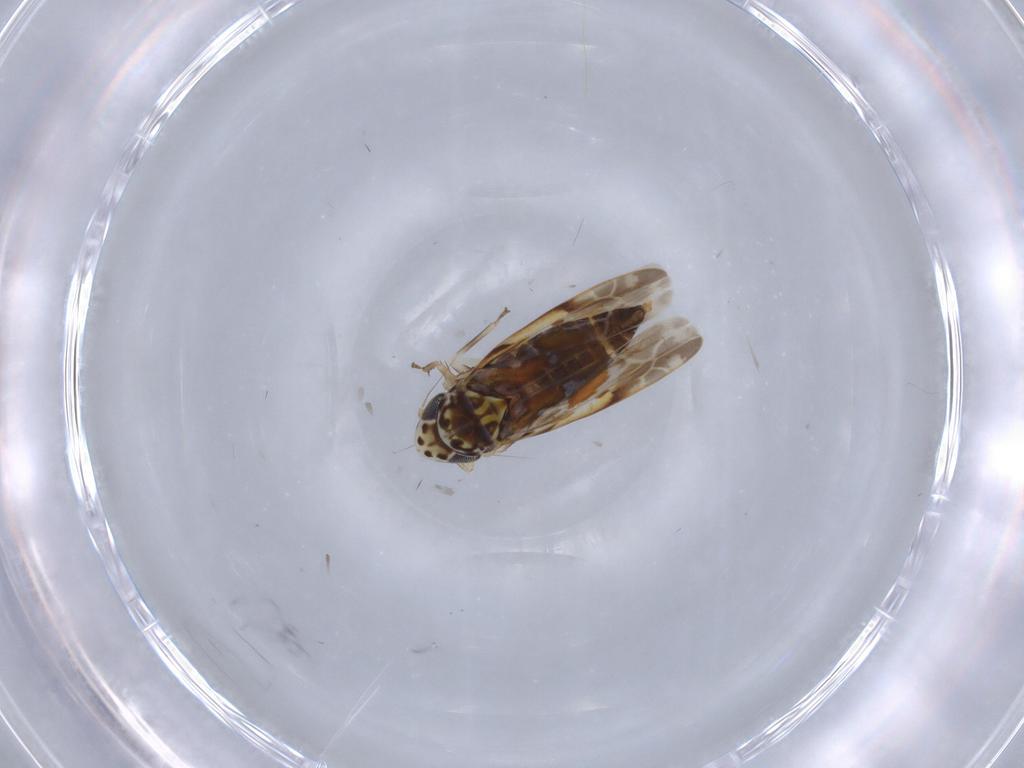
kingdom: Animalia
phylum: Arthropoda
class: Insecta
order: Hemiptera
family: Cicadellidae
